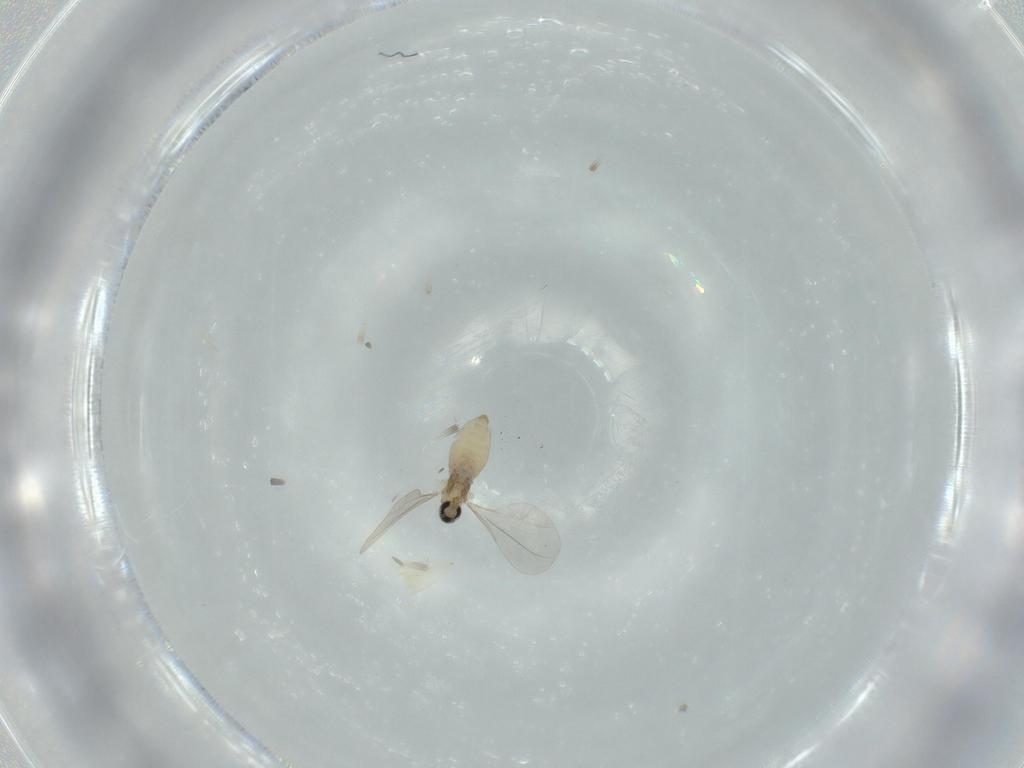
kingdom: Animalia
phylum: Arthropoda
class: Insecta
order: Diptera
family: Cecidomyiidae
